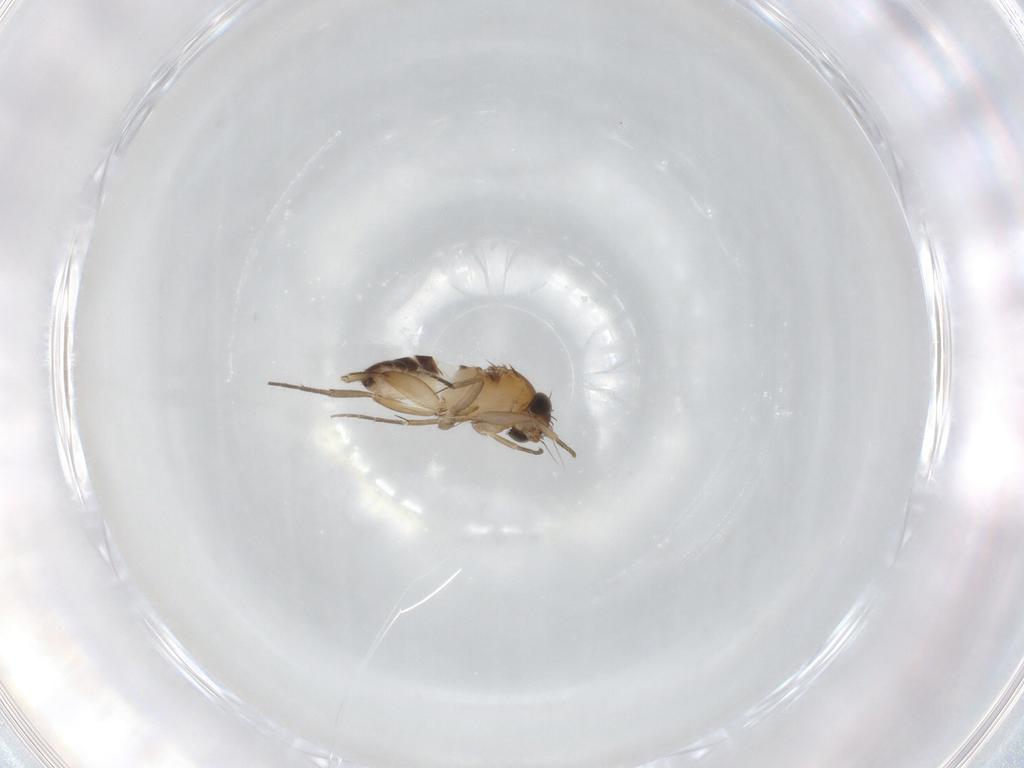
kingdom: Animalia
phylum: Arthropoda
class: Insecta
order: Diptera
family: Phoridae
